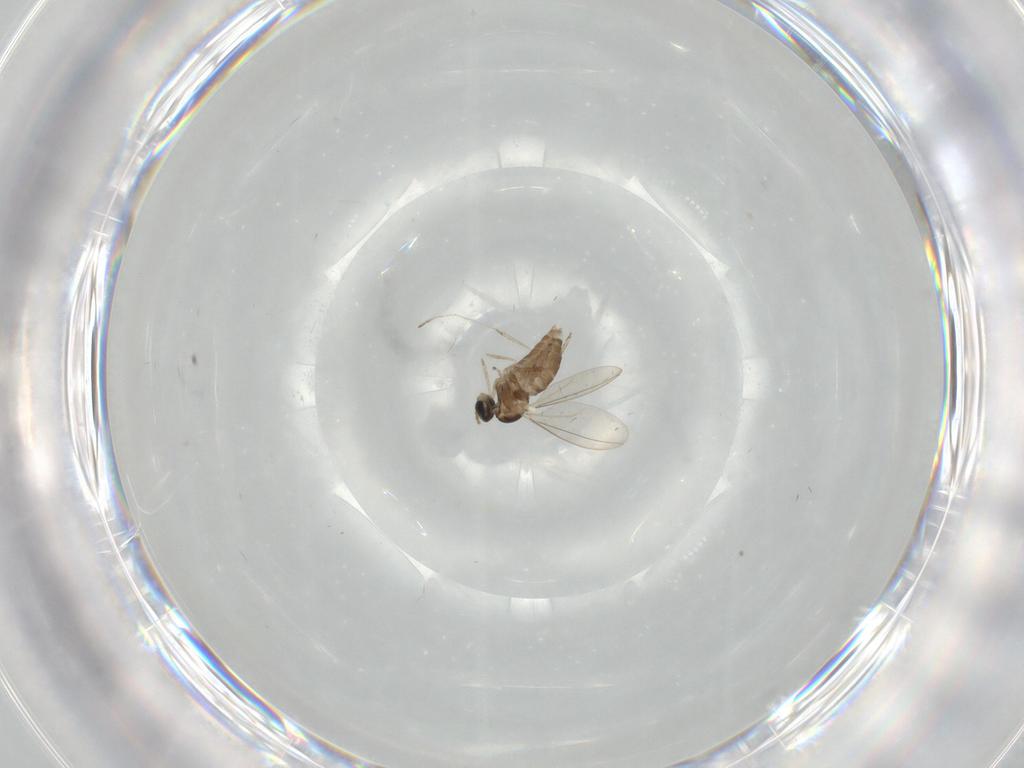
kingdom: Animalia
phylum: Arthropoda
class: Insecta
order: Diptera
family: Cecidomyiidae
